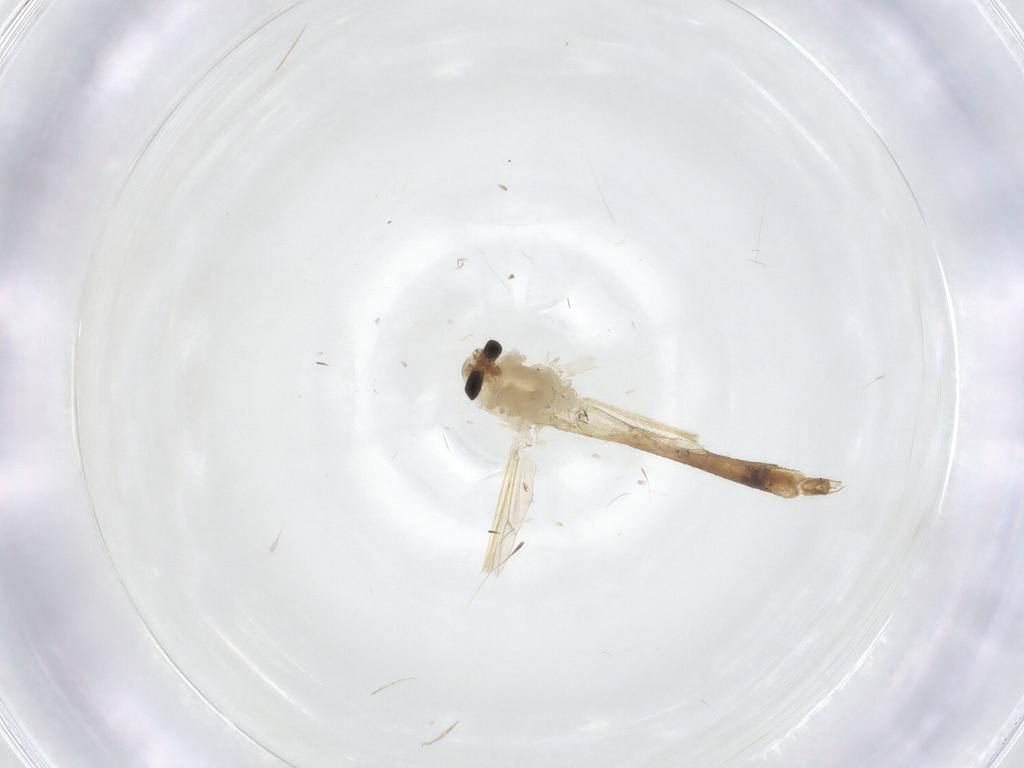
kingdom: Animalia
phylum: Arthropoda
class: Insecta
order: Diptera
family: Chironomidae
